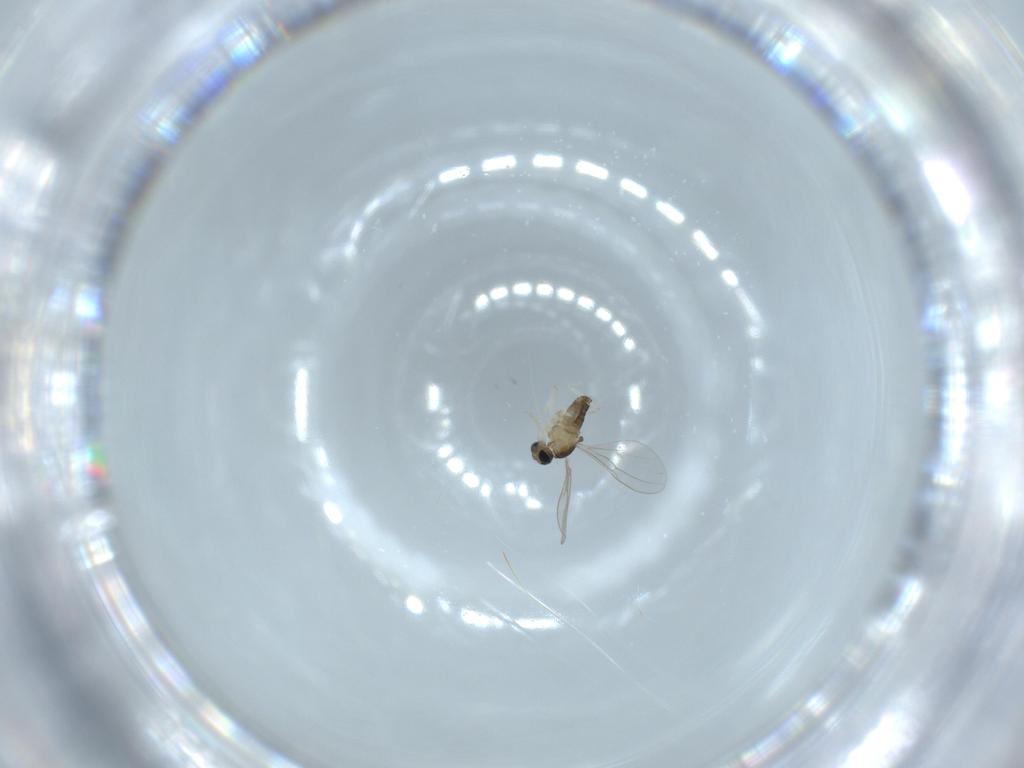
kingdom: Animalia
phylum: Arthropoda
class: Insecta
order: Diptera
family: Cecidomyiidae
